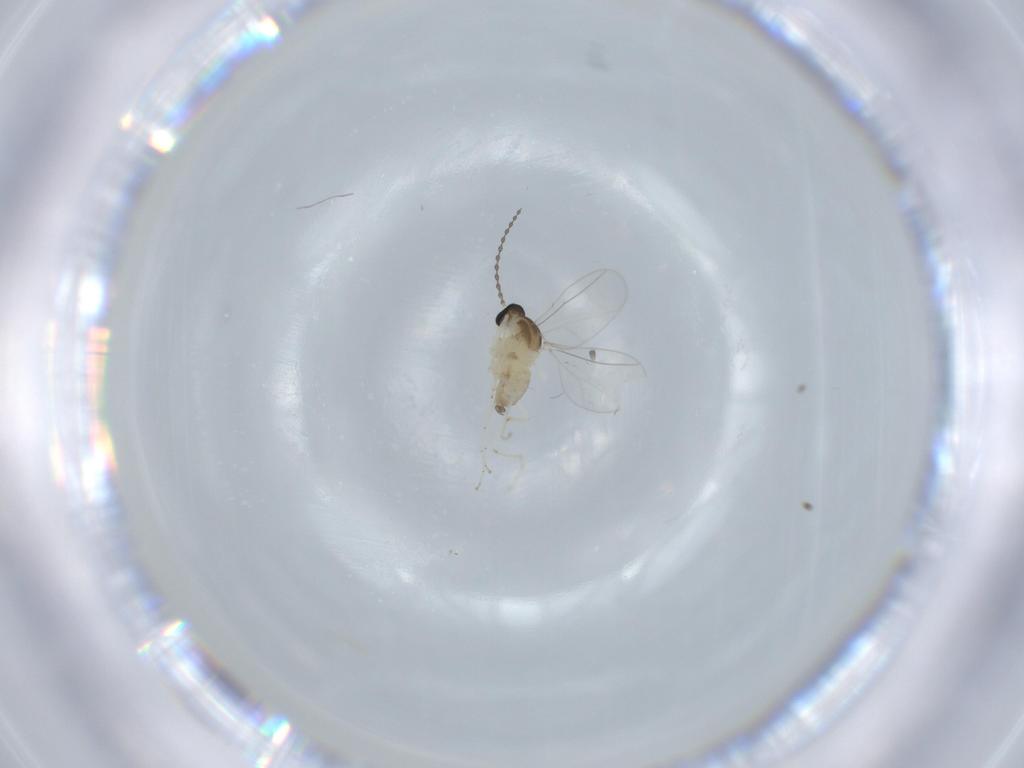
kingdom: Animalia
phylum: Arthropoda
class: Insecta
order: Diptera
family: Cecidomyiidae
